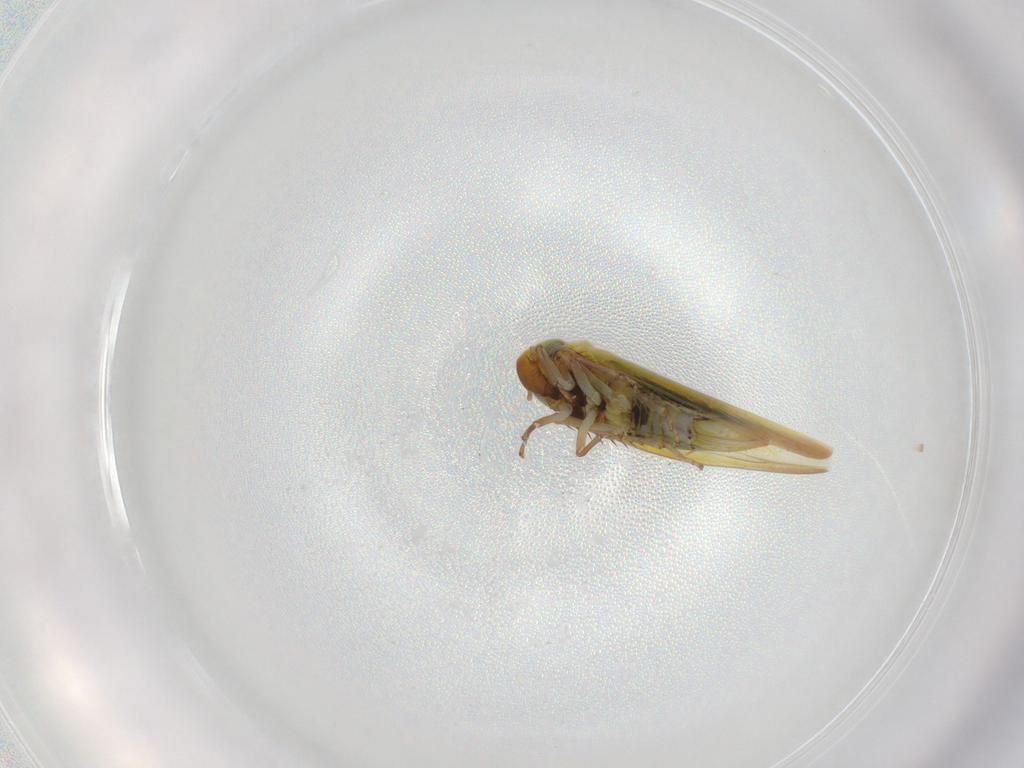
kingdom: Animalia
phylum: Arthropoda
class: Insecta
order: Hemiptera
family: Cicadellidae
